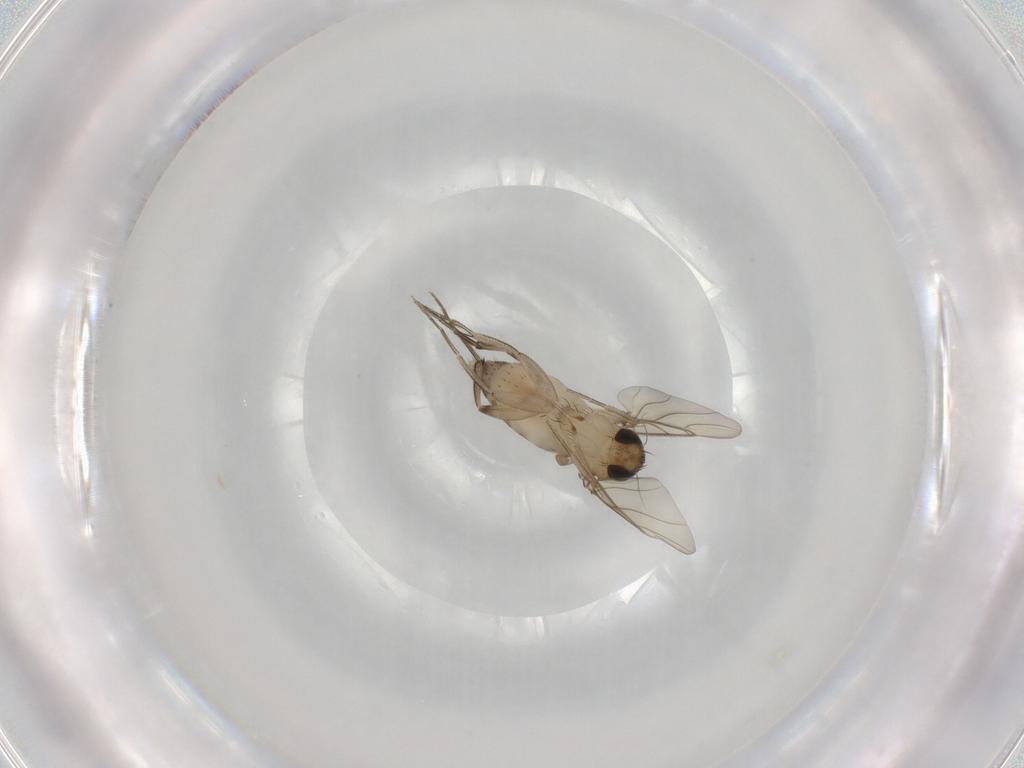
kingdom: Animalia
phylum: Arthropoda
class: Insecta
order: Diptera
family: Phoridae
